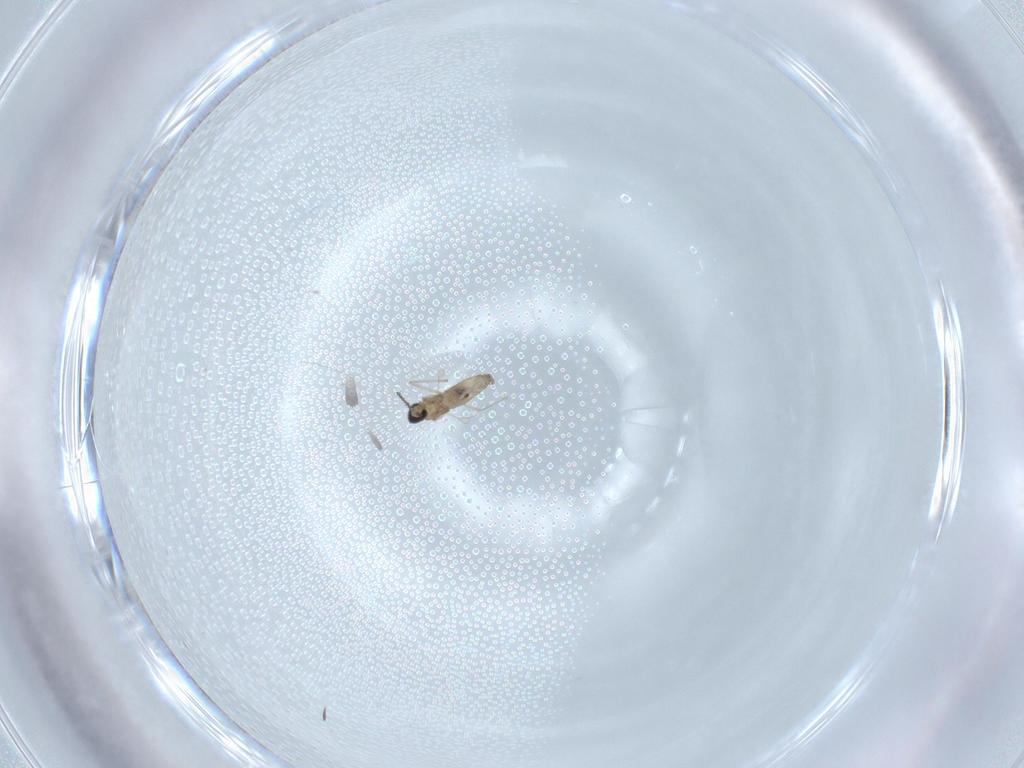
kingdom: Animalia
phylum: Arthropoda
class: Insecta
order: Diptera
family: Cecidomyiidae
